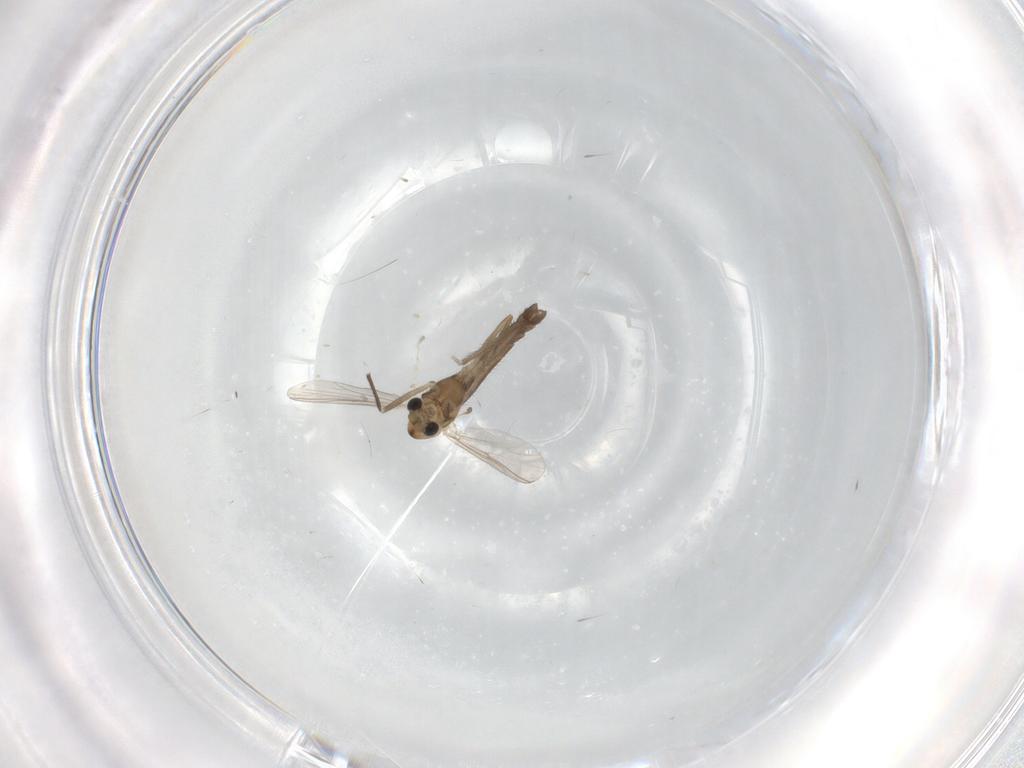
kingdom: Animalia
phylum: Arthropoda
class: Insecta
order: Diptera
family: Chironomidae
